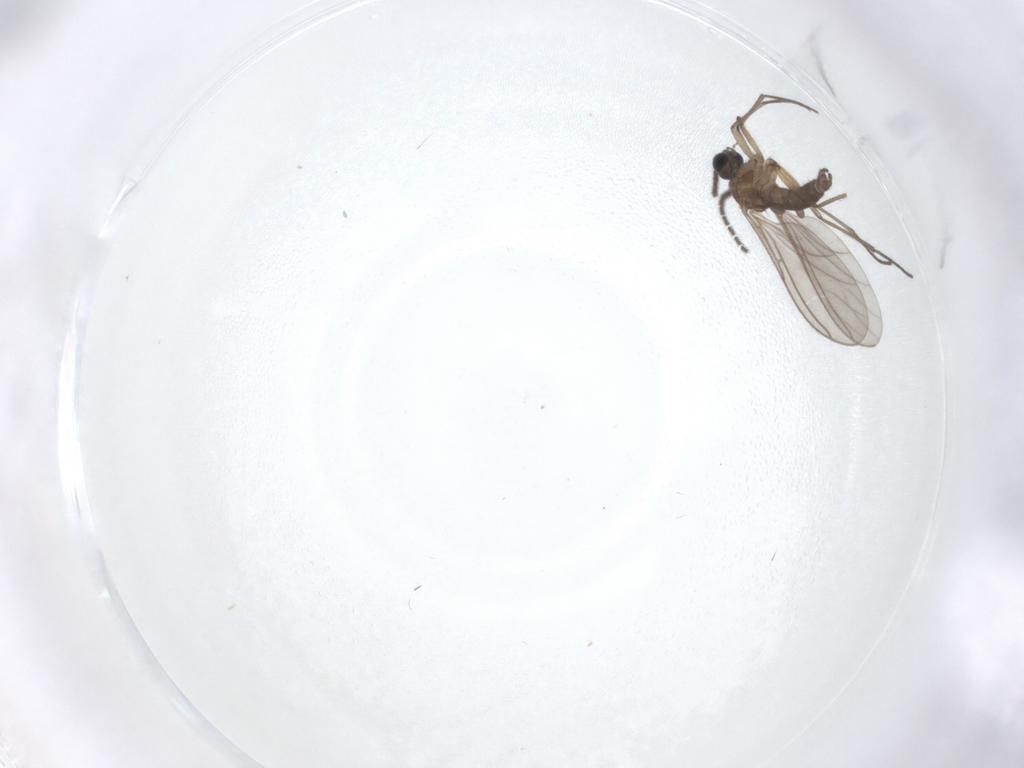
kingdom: Animalia
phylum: Arthropoda
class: Insecta
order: Diptera
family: Sciaridae
